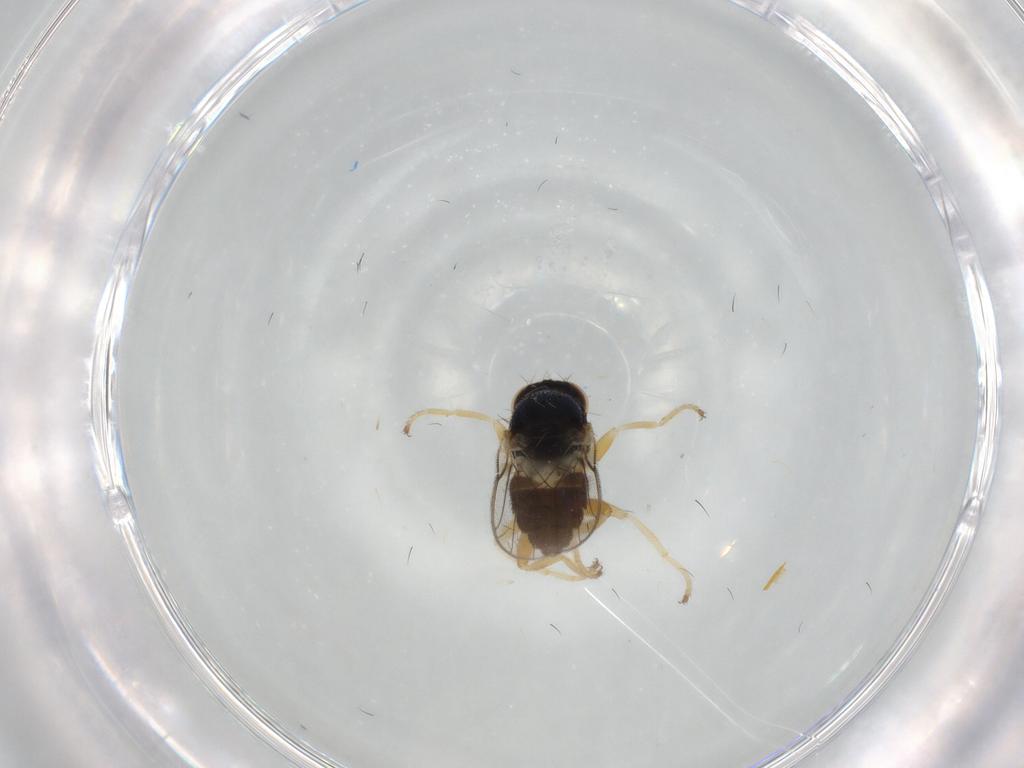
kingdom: Animalia
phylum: Arthropoda
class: Insecta
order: Diptera
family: Chloropidae
